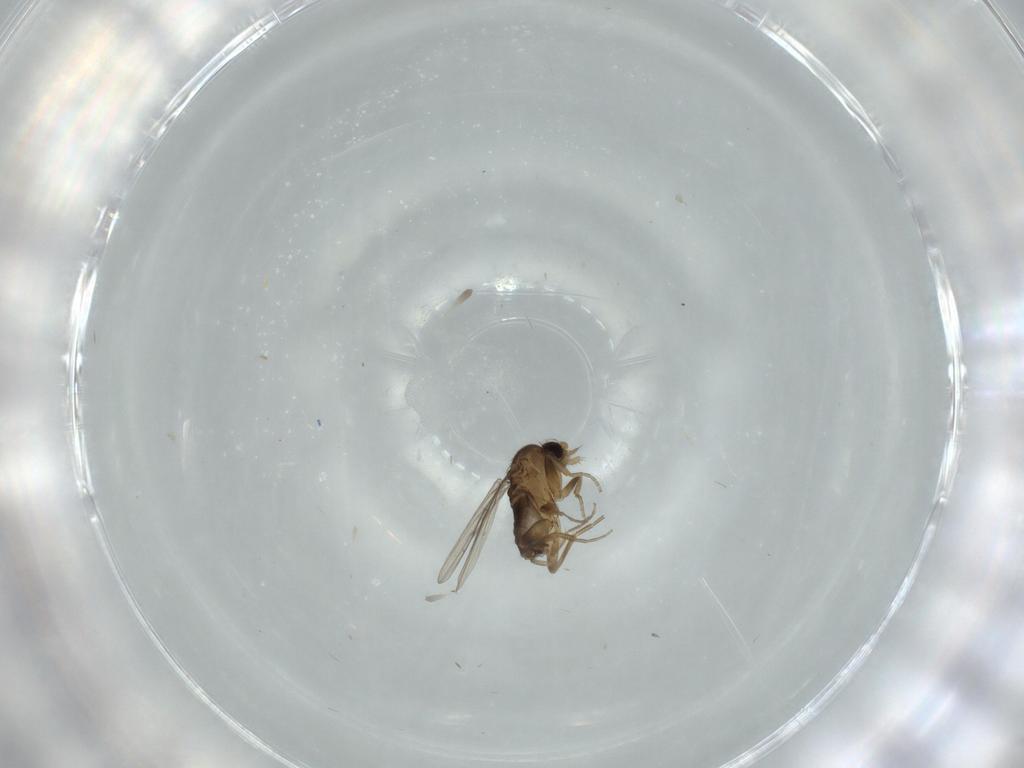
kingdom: Animalia
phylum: Arthropoda
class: Insecta
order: Diptera
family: Phoridae
